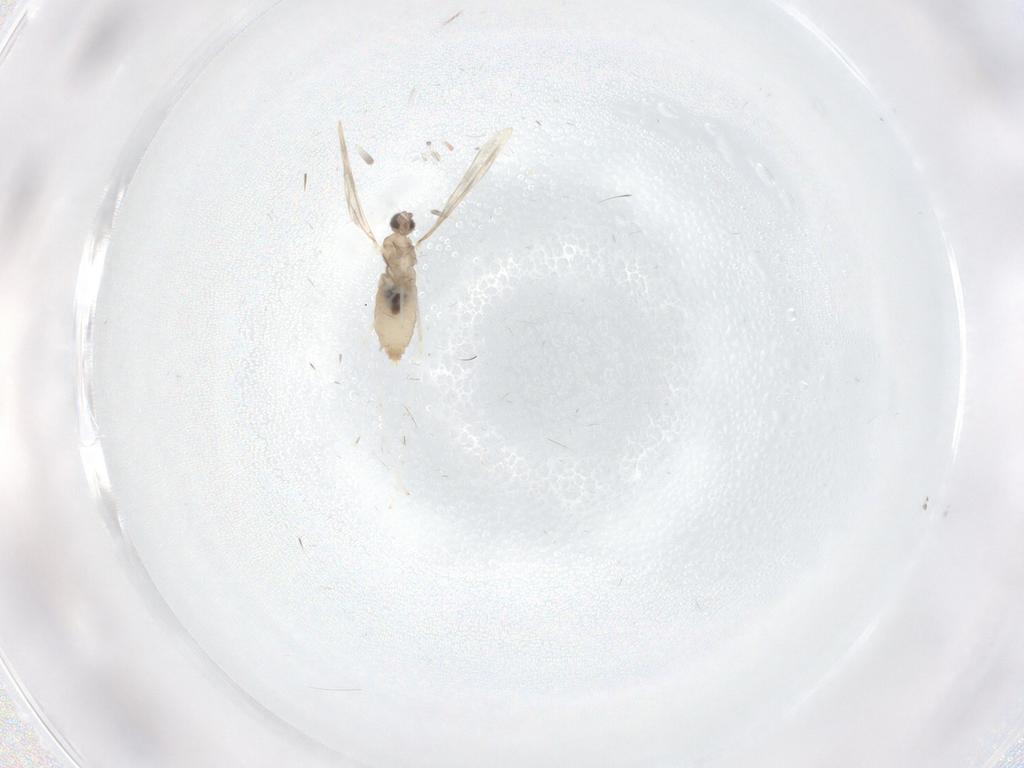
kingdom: Animalia
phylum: Arthropoda
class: Insecta
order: Diptera
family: Cecidomyiidae
